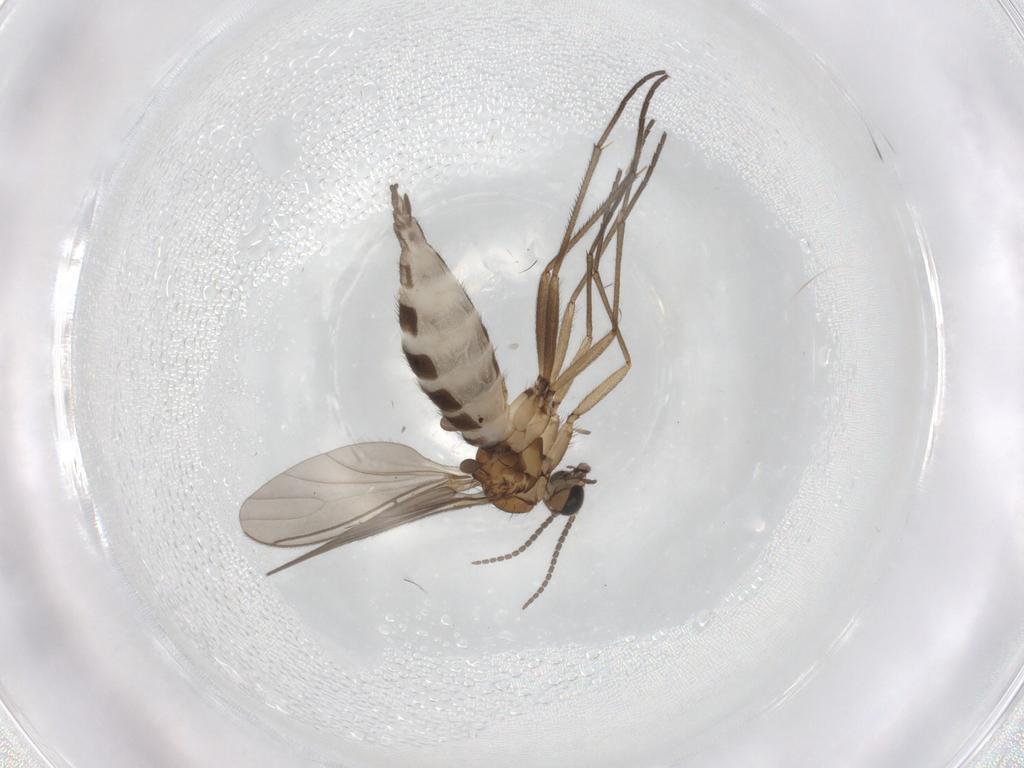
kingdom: Animalia
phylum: Arthropoda
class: Insecta
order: Diptera
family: Sciaridae
